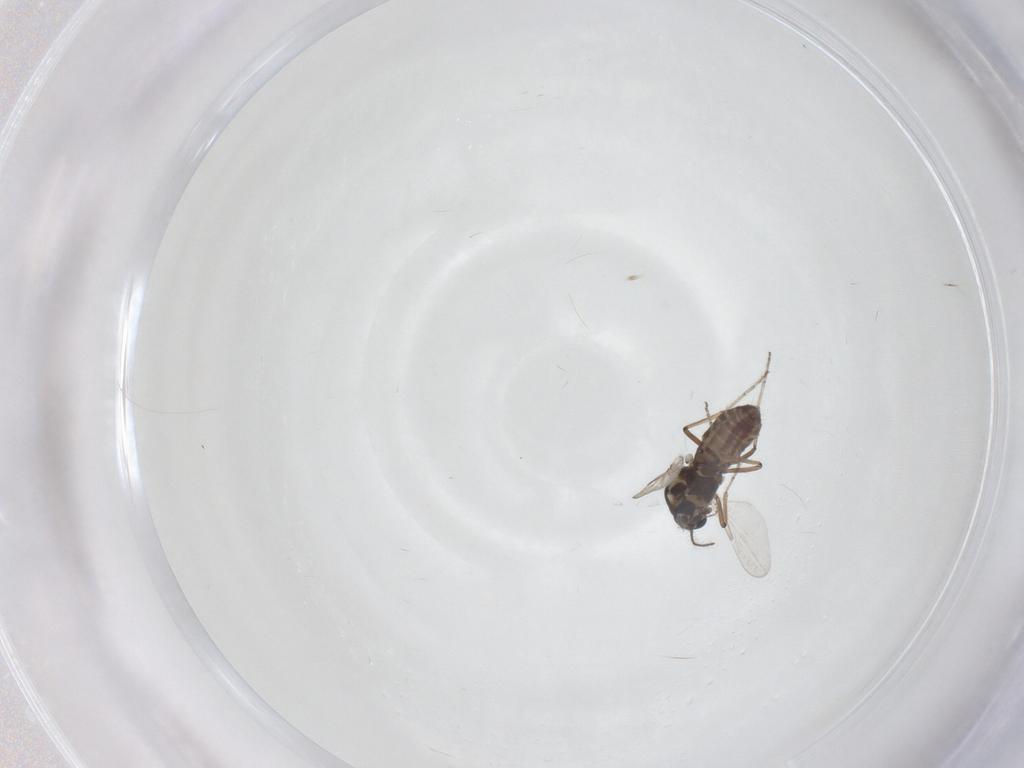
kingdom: Animalia
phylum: Arthropoda
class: Insecta
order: Diptera
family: Ceratopogonidae
